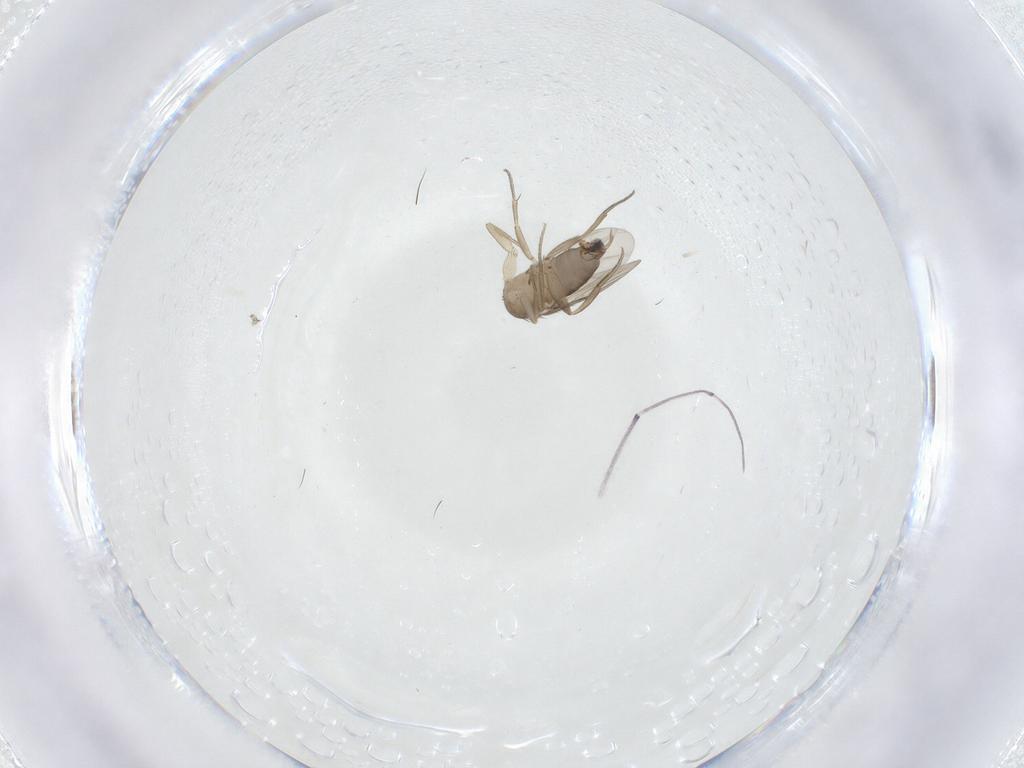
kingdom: Animalia
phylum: Arthropoda
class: Insecta
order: Diptera
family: Phoridae
